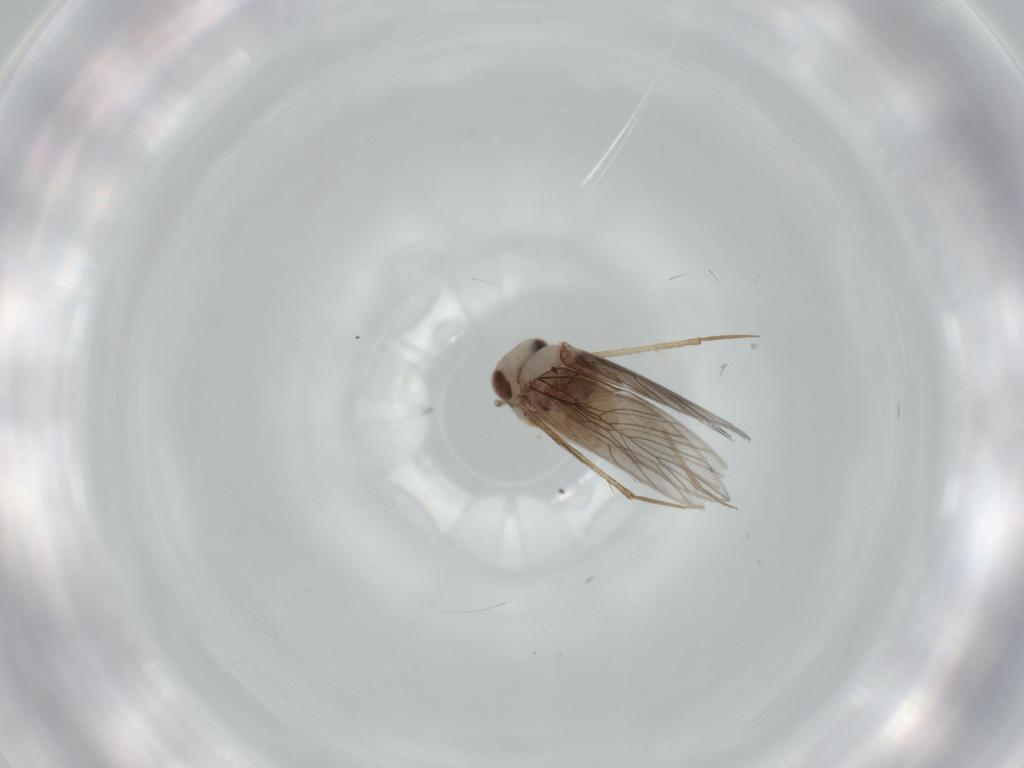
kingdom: Animalia
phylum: Arthropoda
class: Insecta
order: Psocodea
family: Lepidopsocidae
